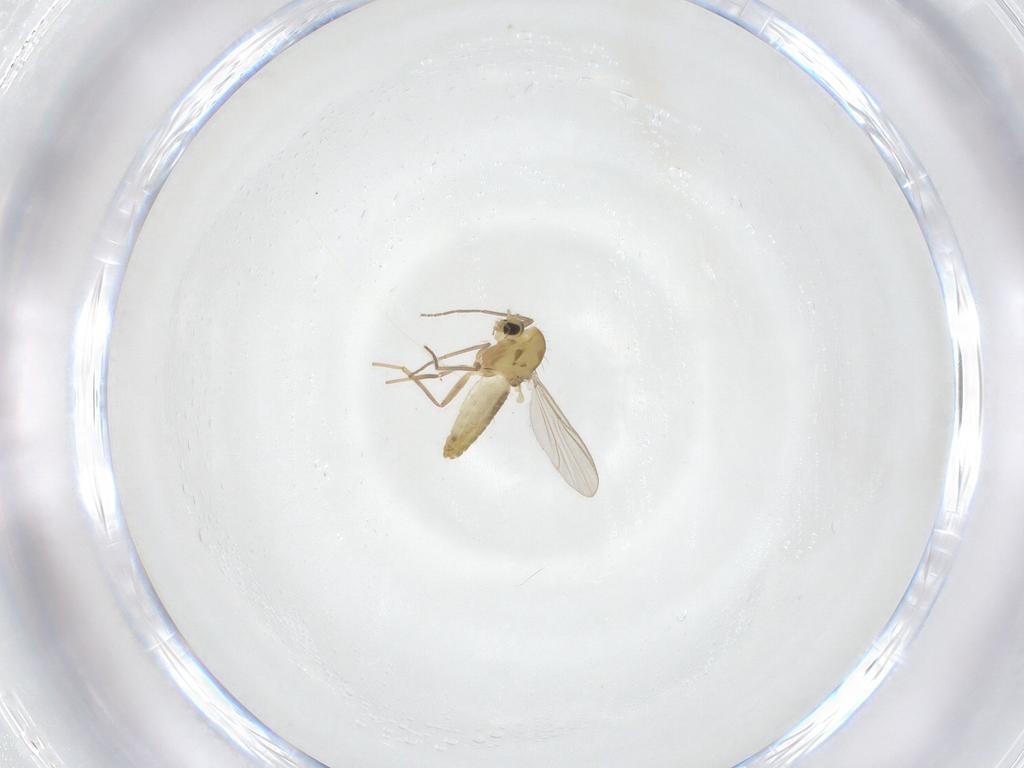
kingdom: Animalia
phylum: Arthropoda
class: Insecta
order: Diptera
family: Chironomidae
